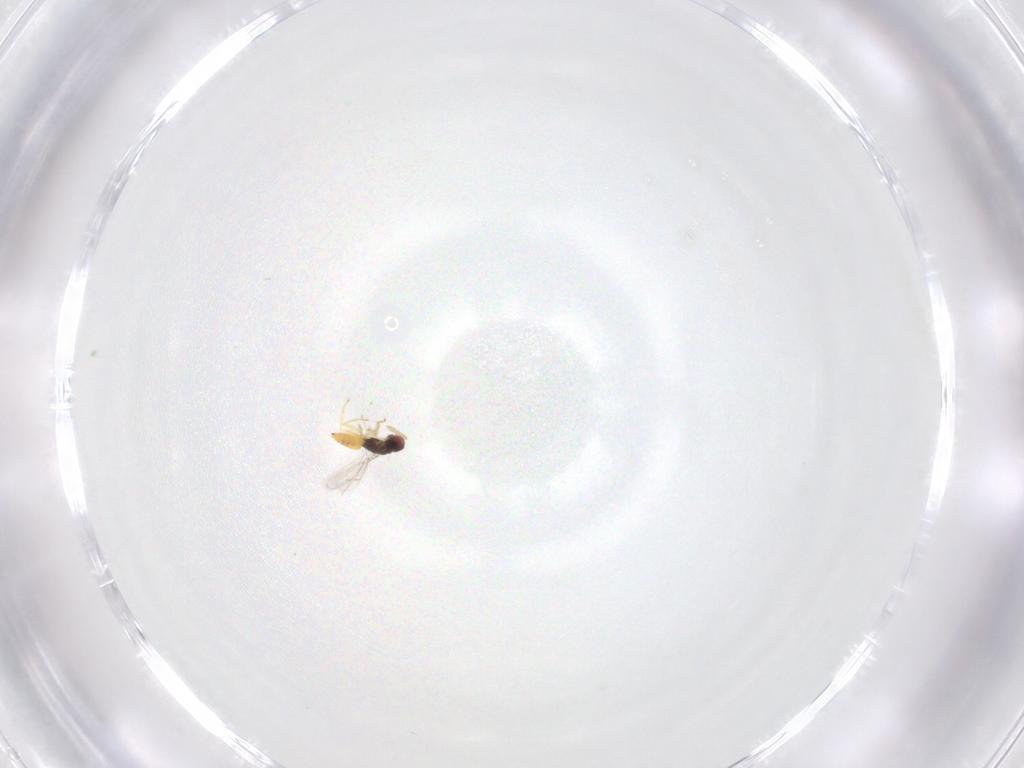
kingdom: Animalia
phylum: Arthropoda
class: Insecta
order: Hymenoptera
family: Eulophidae
